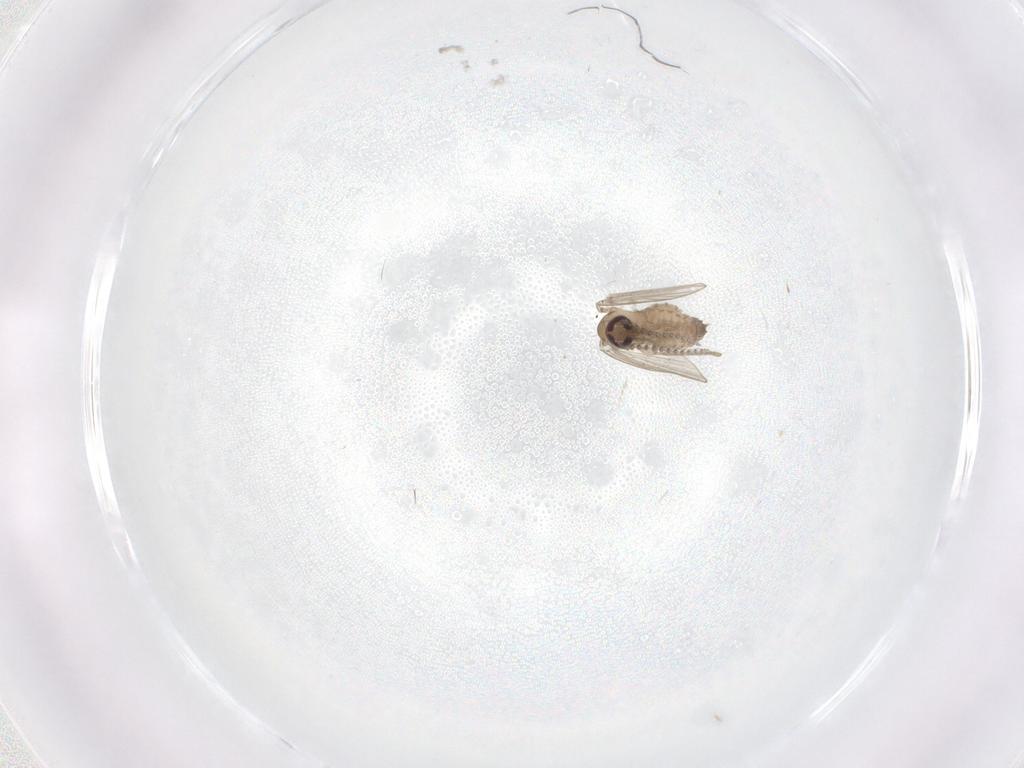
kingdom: Animalia
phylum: Arthropoda
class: Insecta
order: Diptera
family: Psychodidae
